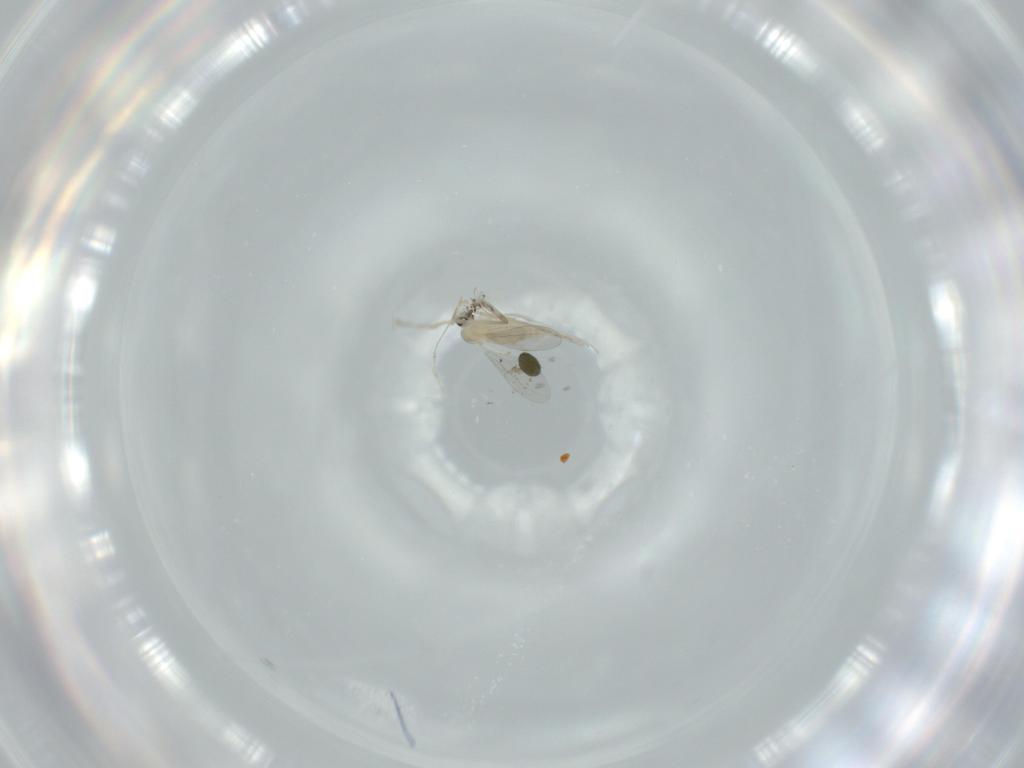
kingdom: Animalia
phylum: Arthropoda
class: Insecta
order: Diptera
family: Cecidomyiidae
